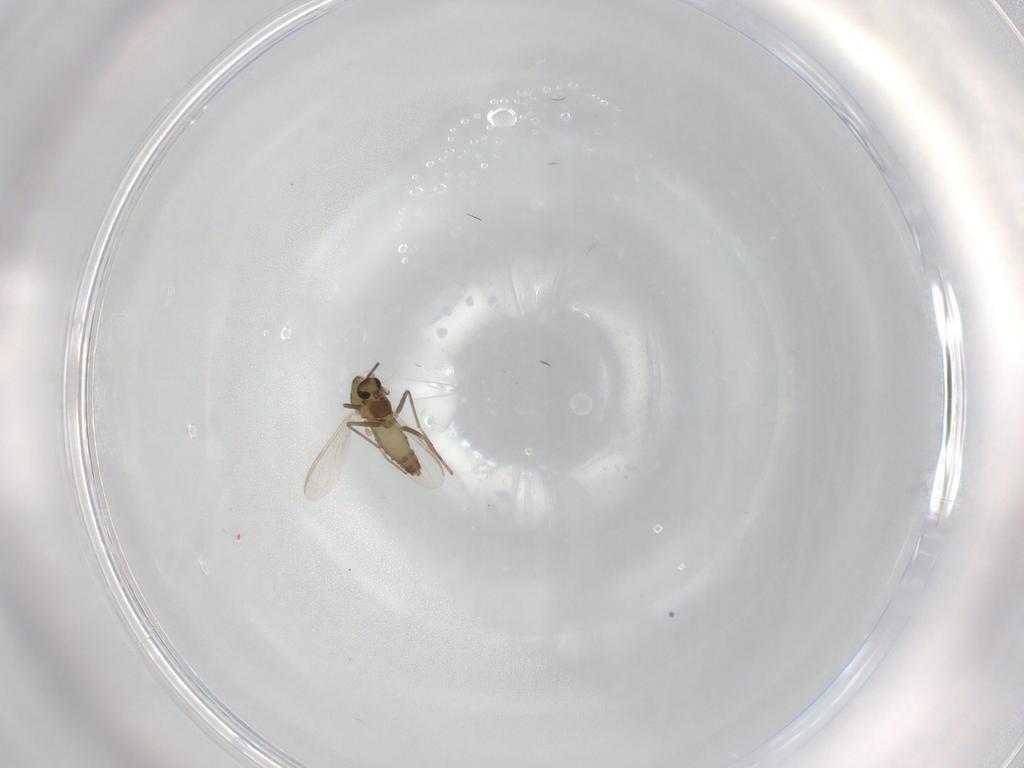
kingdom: Animalia
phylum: Arthropoda
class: Insecta
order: Diptera
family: Chironomidae
